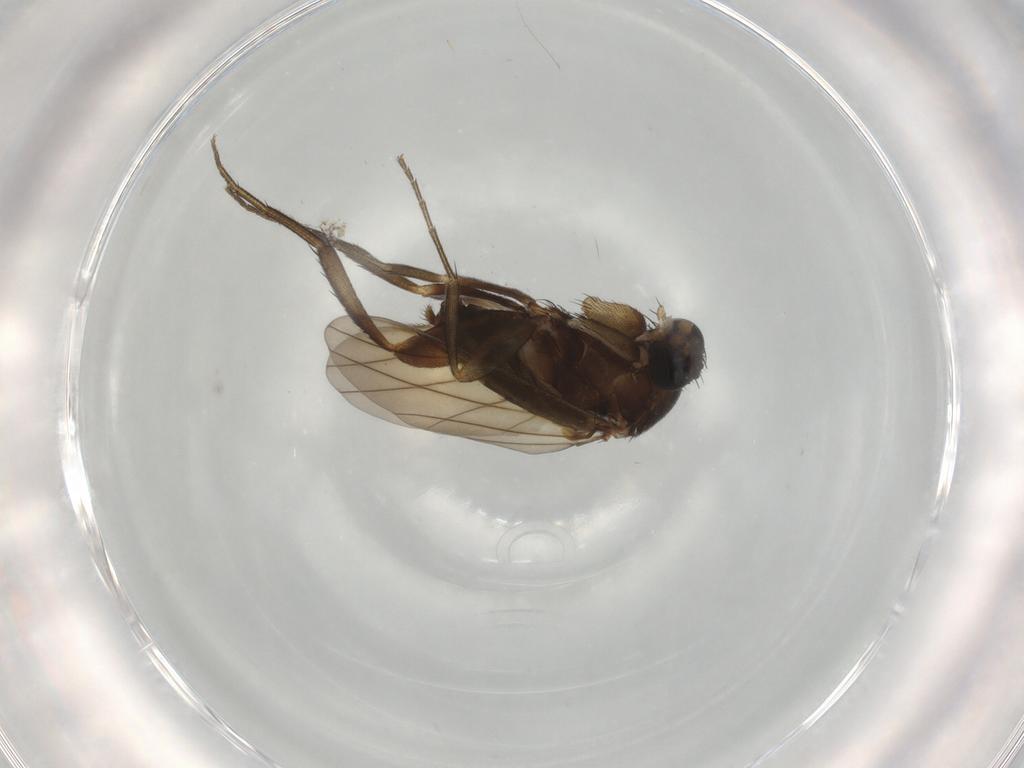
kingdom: Animalia
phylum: Arthropoda
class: Insecta
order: Diptera
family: Phoridae
